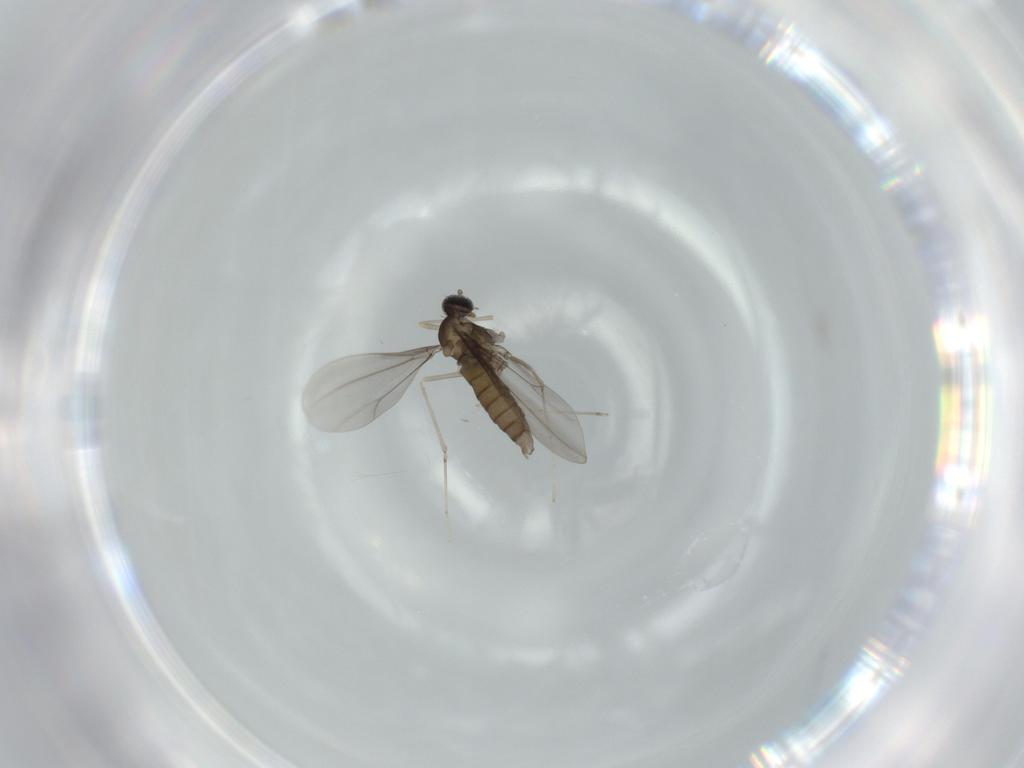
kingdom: Animalia
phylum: Arthropoda
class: Insecta
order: Diptera
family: Cecidomyiidae
